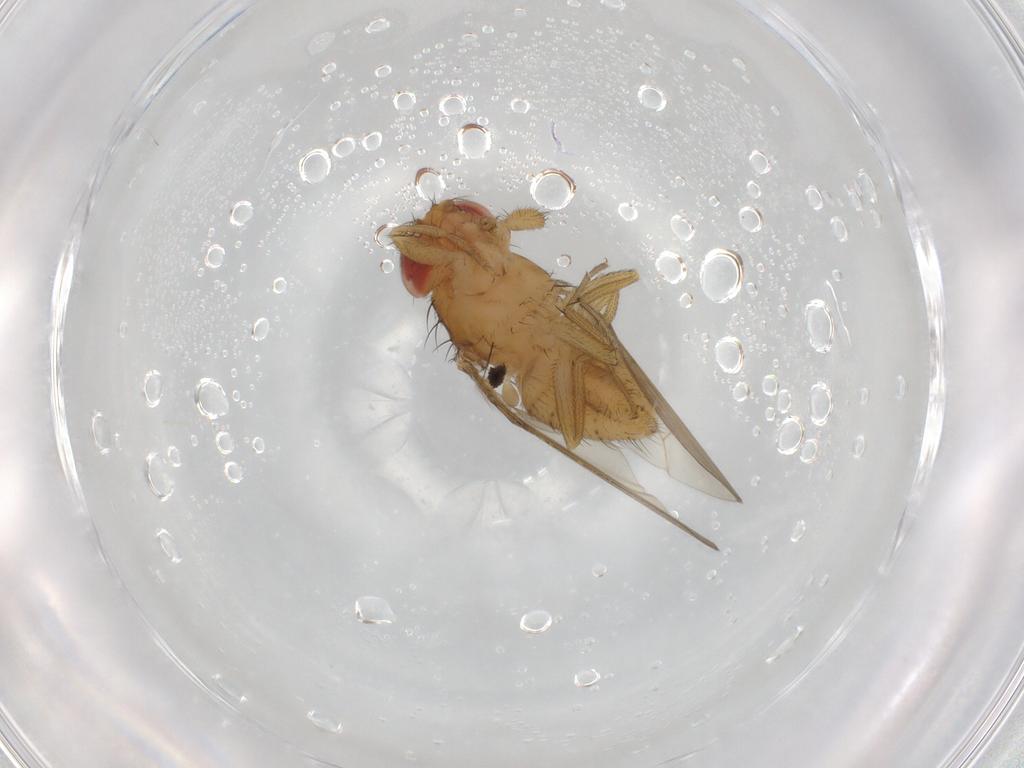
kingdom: Animalia
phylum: Arthropoda
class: Insecta
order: Diptera
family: Drosophilidae
